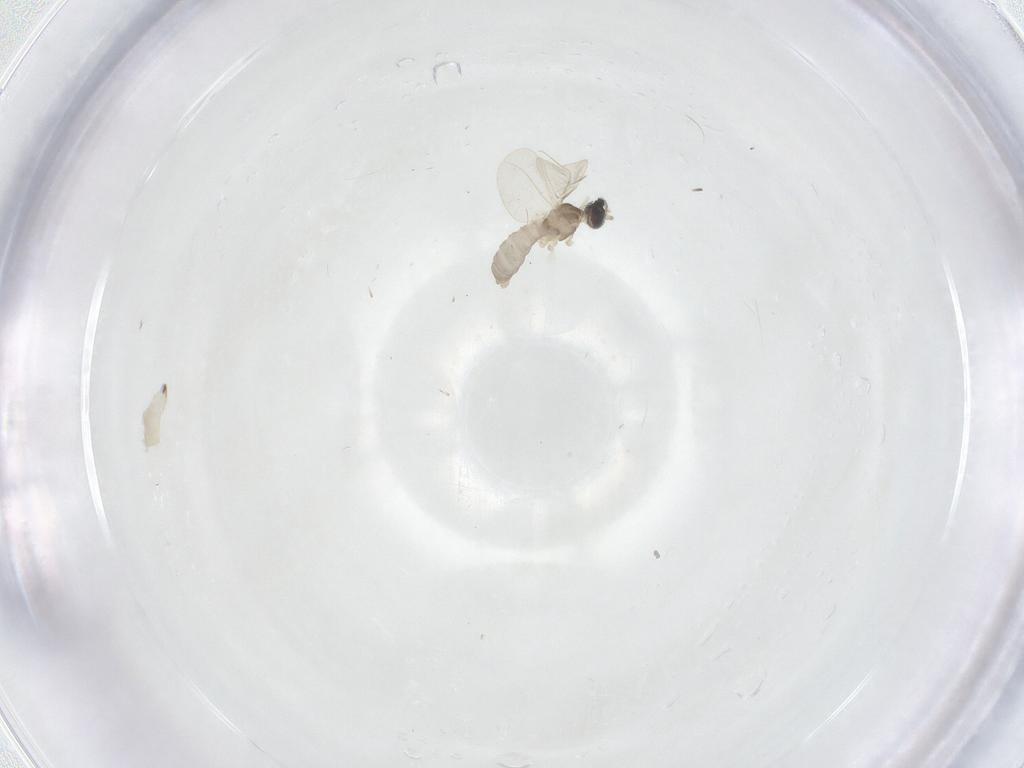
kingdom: Animalia
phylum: Arthropoda
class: Insecta
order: Diptera
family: Cecidomyiidae
